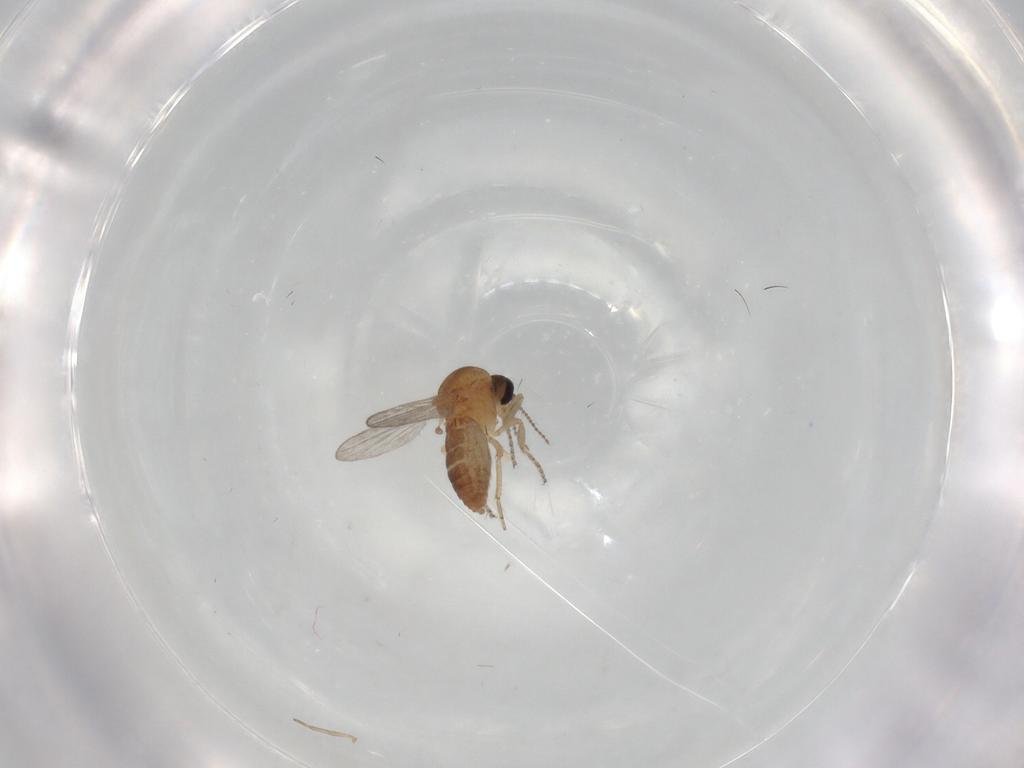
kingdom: Animalia
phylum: Arthropoda
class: Insecta
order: Diptera
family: Ceratopogonidae
